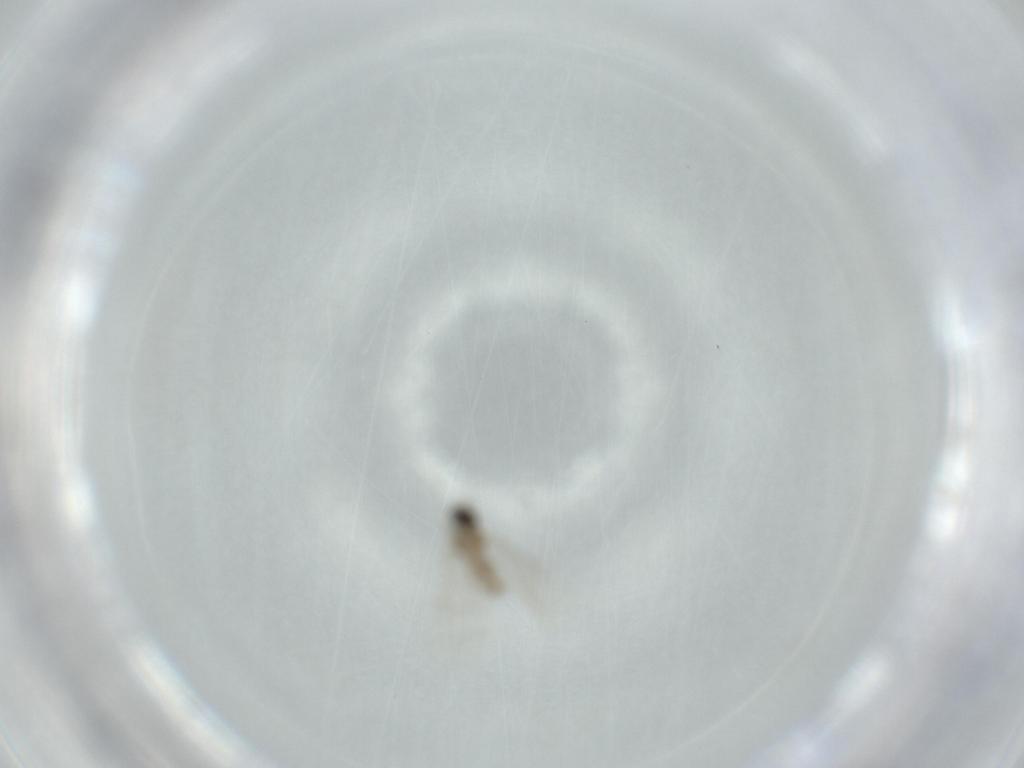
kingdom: Animalia
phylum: Arthropoda
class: Insecta
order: Diptera
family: Cecidomyiidae
